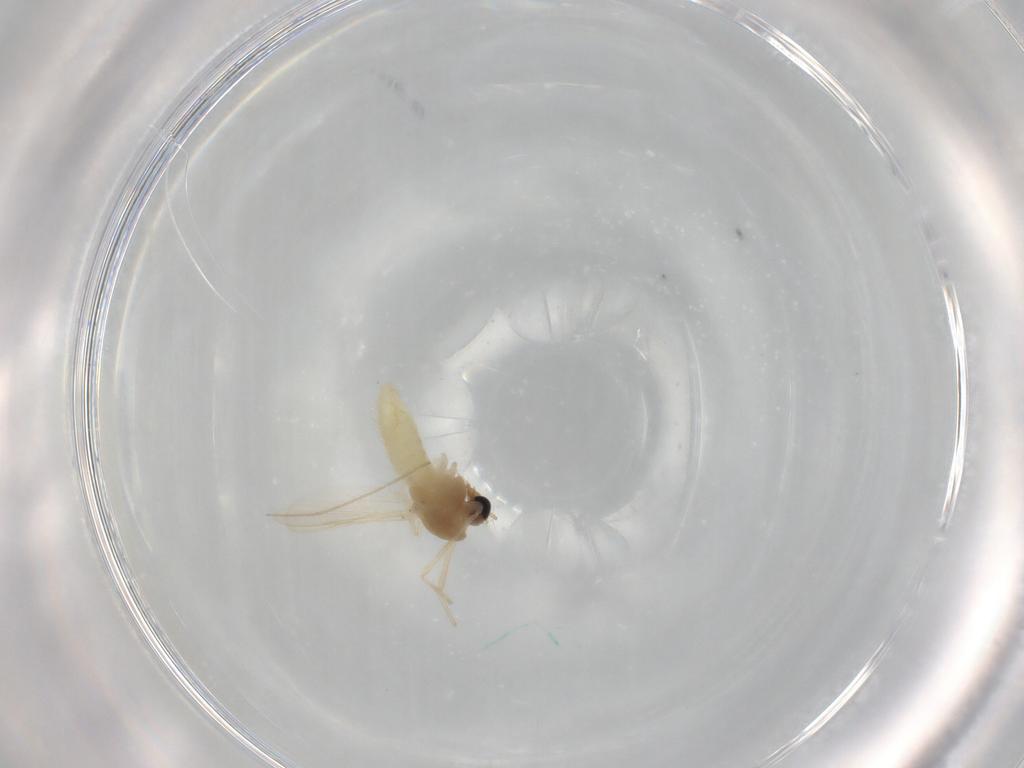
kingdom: Animalia
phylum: Arthropoda
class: Insecta
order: Diptera
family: Chironomidae
